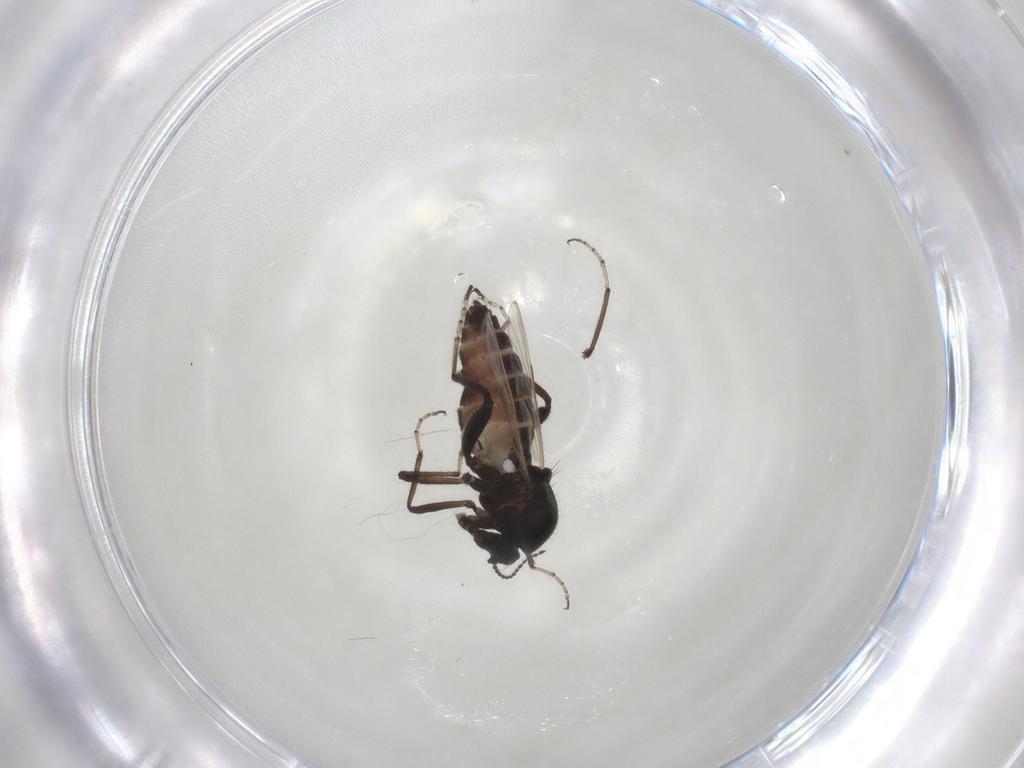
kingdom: Animalia
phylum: Arthropoda
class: Insecta
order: Diptera
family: Ceratopogonidae
